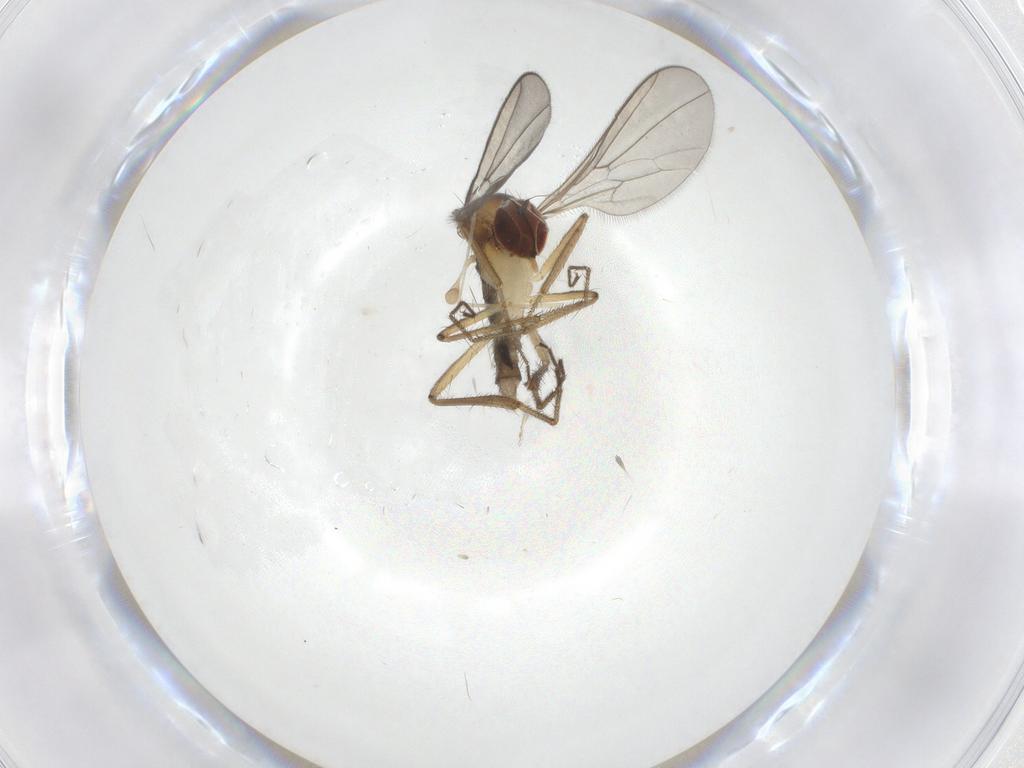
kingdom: Animalia
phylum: Arthropoda
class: Insecta
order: Diptera
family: Hybotidae
